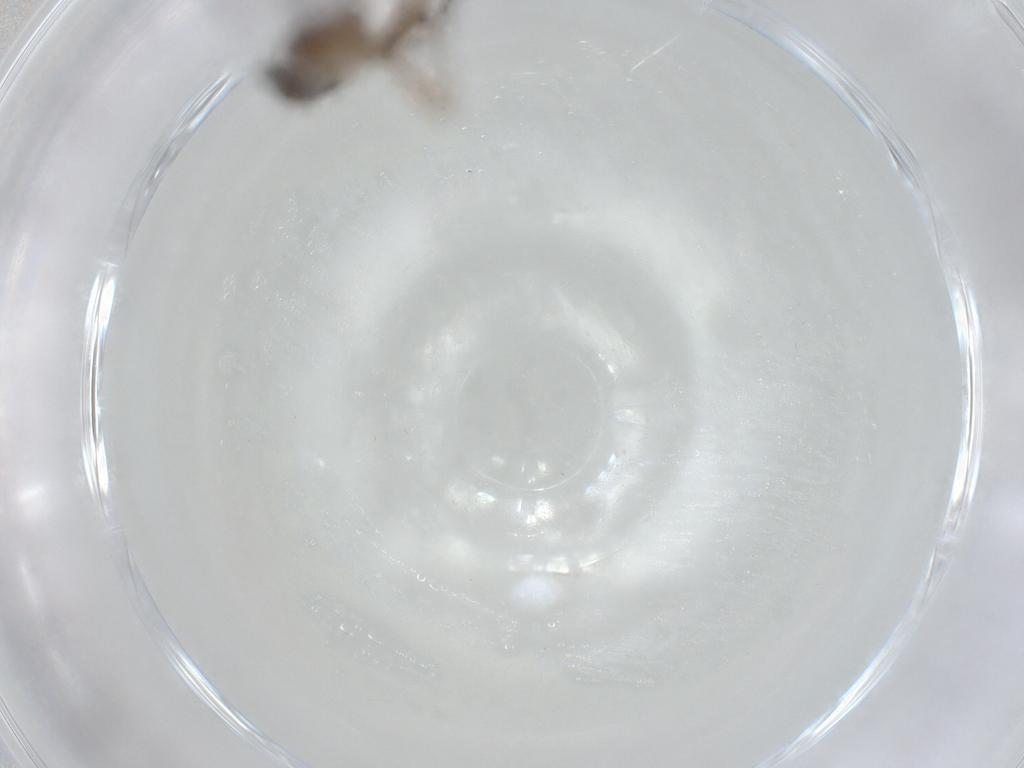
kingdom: Animalia
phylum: Arthropoda
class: Insecta
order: Diptera
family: Sciaridae
